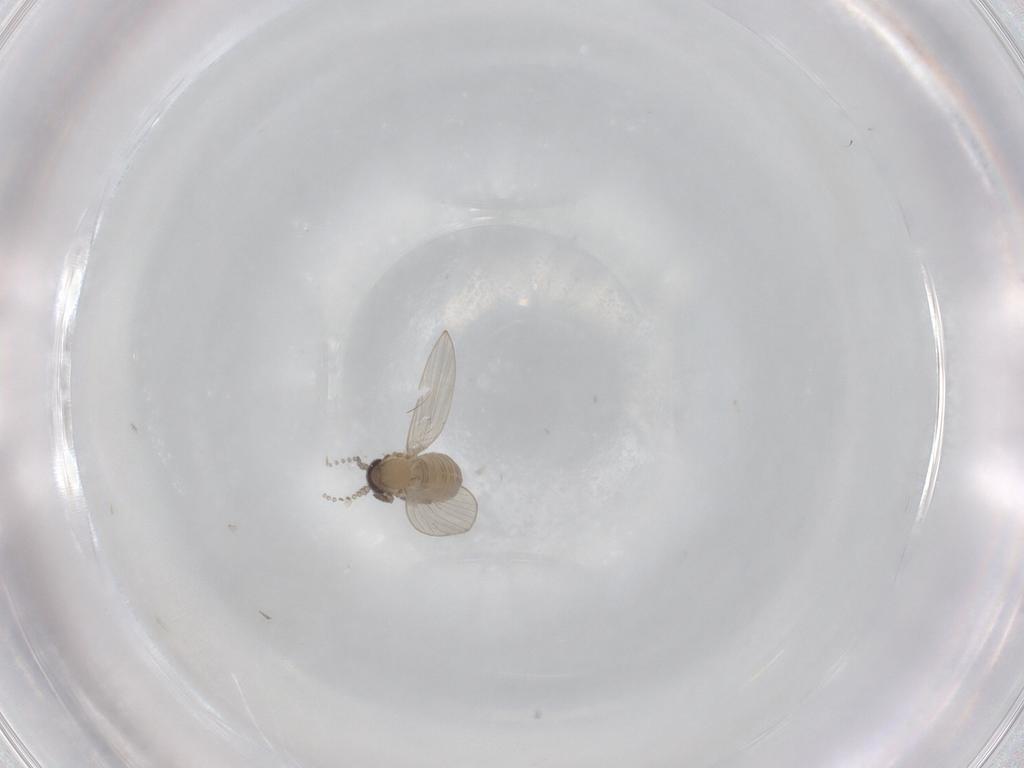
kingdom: Animalia
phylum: Arthropoda
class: Insecta
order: Diptera
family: Psychodidae
